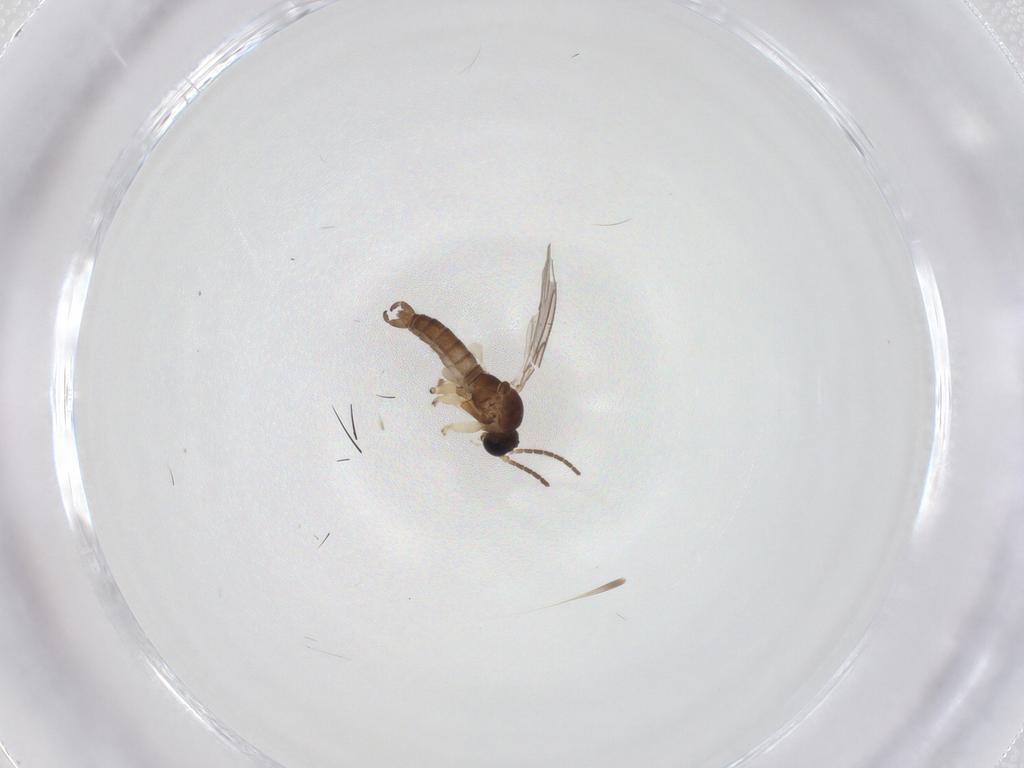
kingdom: Animalia
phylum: Arthropoda
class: Insecta
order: Diptera
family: Sciaridae
